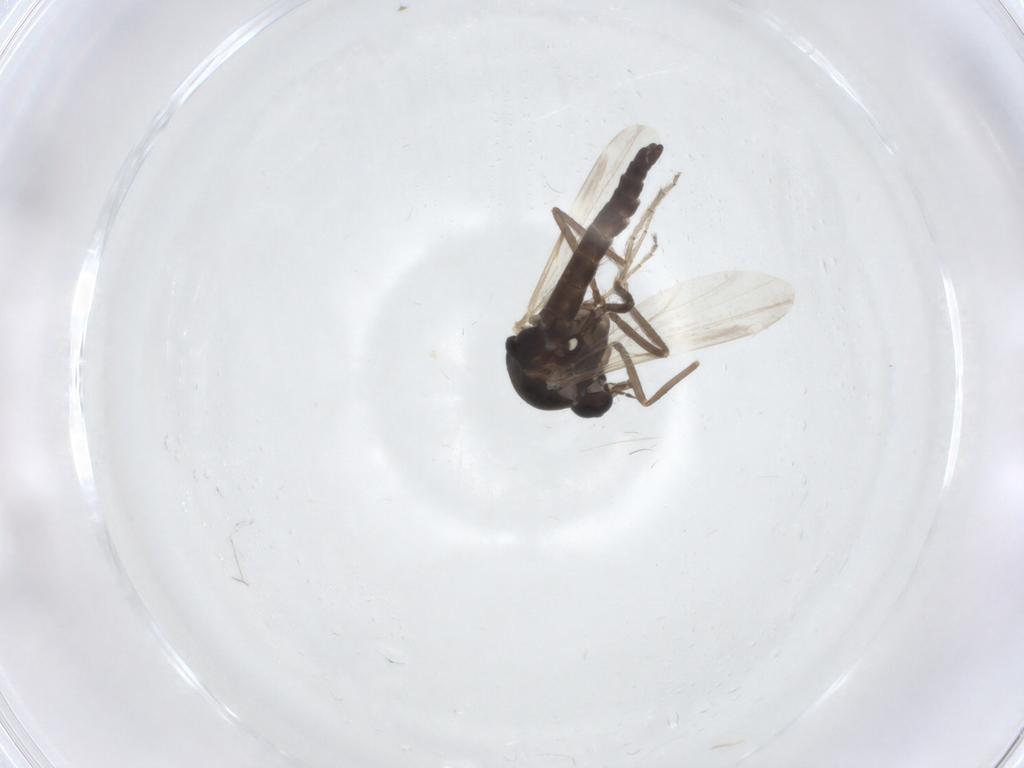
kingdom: Animalia
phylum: Arthropoda
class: Insecta
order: Diptera
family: Ceratopogonidae
